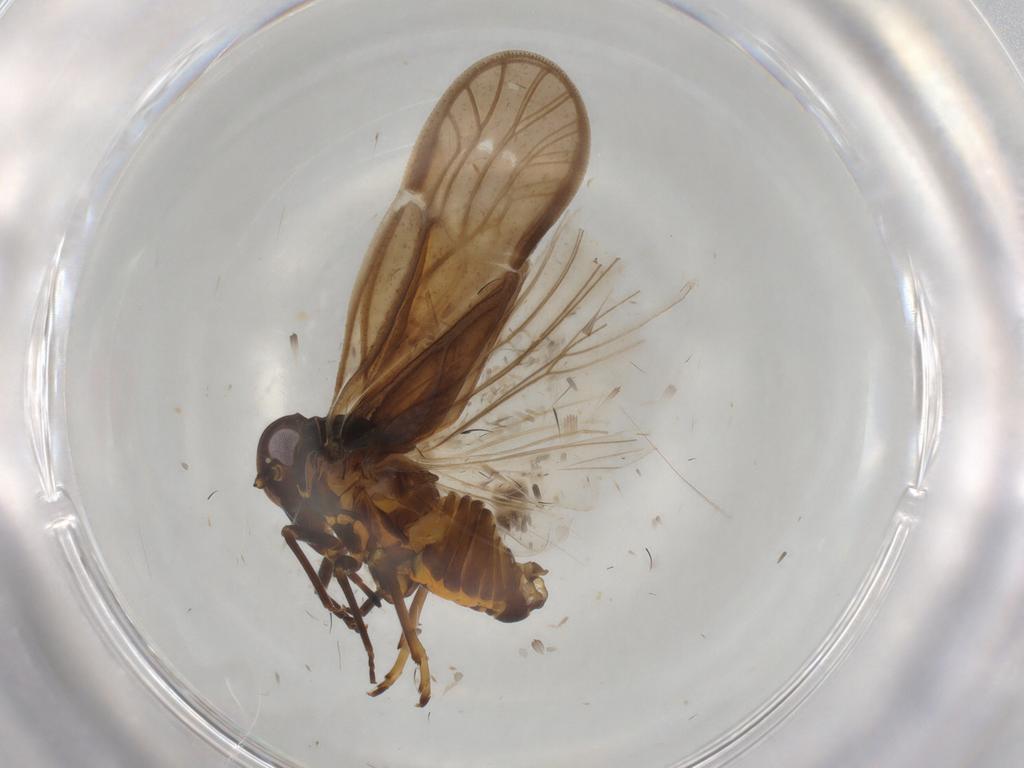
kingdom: Animalia
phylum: Arthropoda
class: Insecta
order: Hemiptera
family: Meenoplidae
